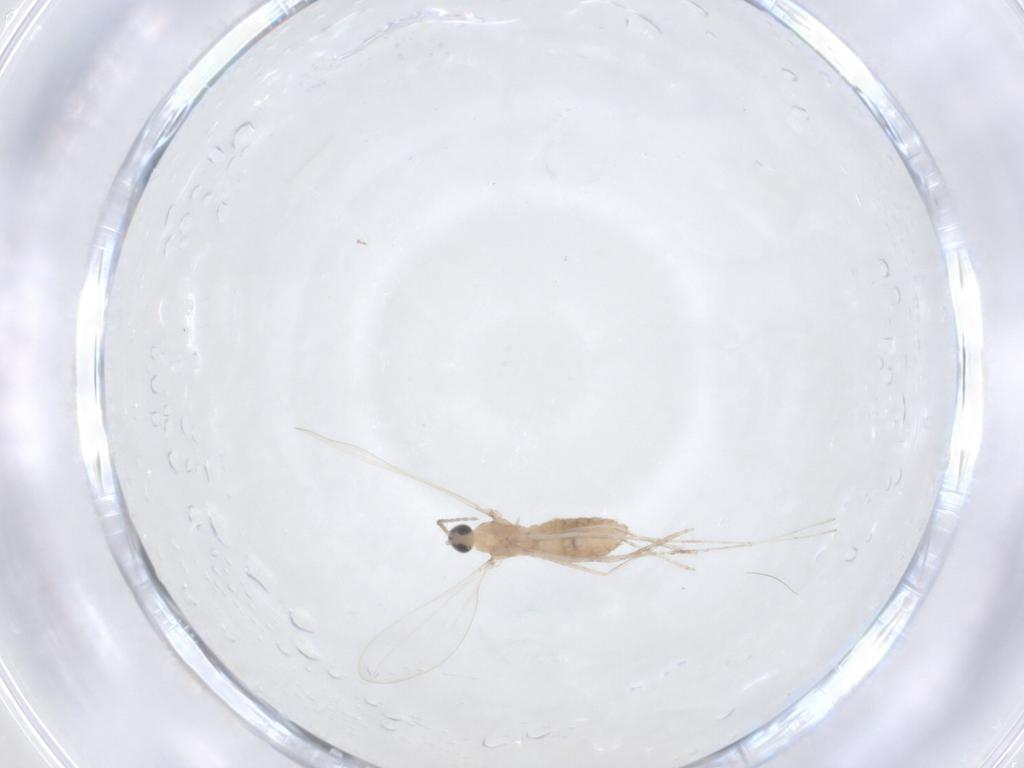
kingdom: Animalia
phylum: Arthropoda
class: Insecta
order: Diptera
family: Cecidomyiidae
